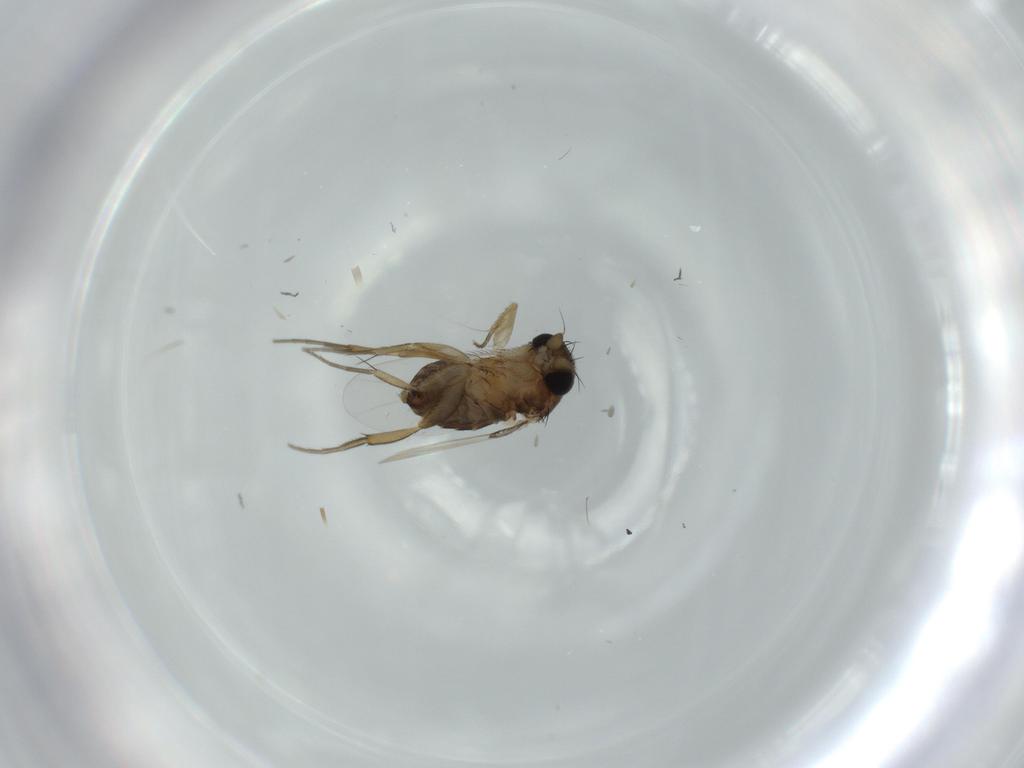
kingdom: Animalia
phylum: Arthropoda
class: Insecta
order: Diptera
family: Phoridae
